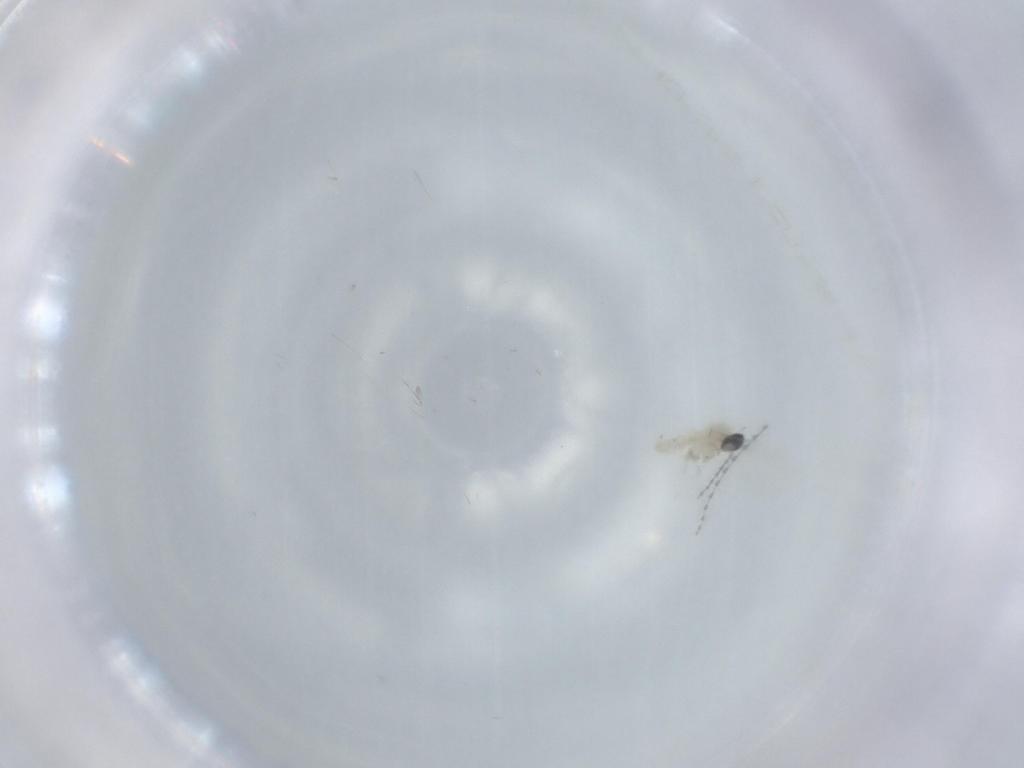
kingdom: Animalia
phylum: Arthropoda
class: Insecta
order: Diptera
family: Cecidomyiidae
